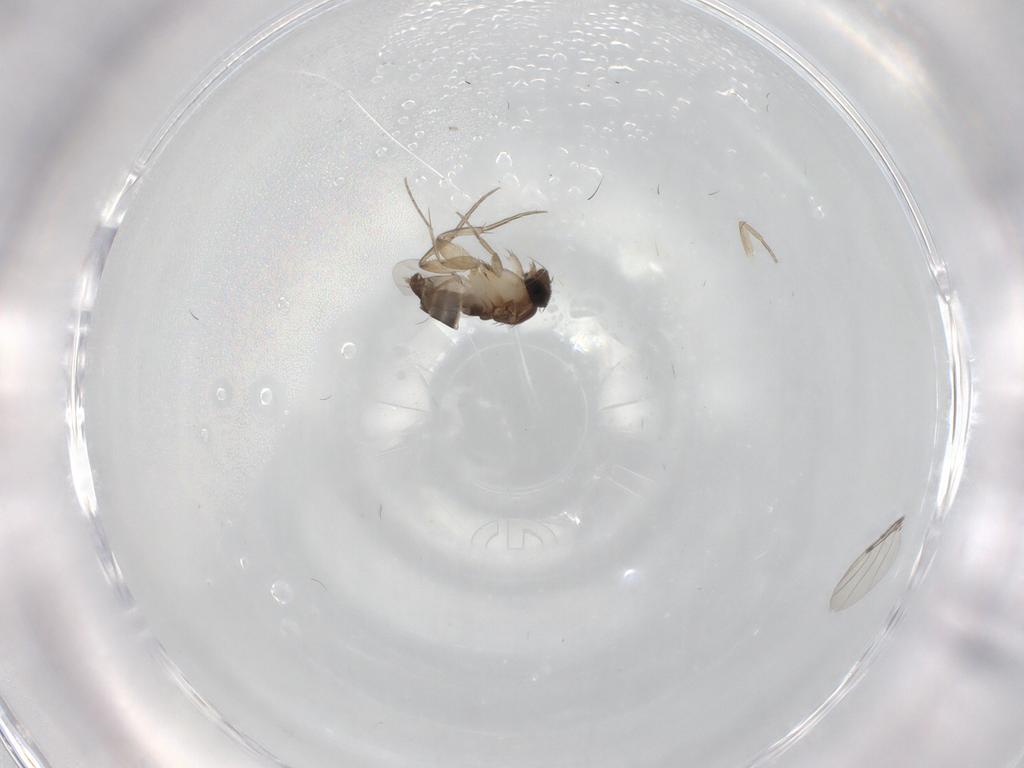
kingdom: Animalia
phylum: Arthropoda
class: Insecta
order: Diptera
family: Phoridae
